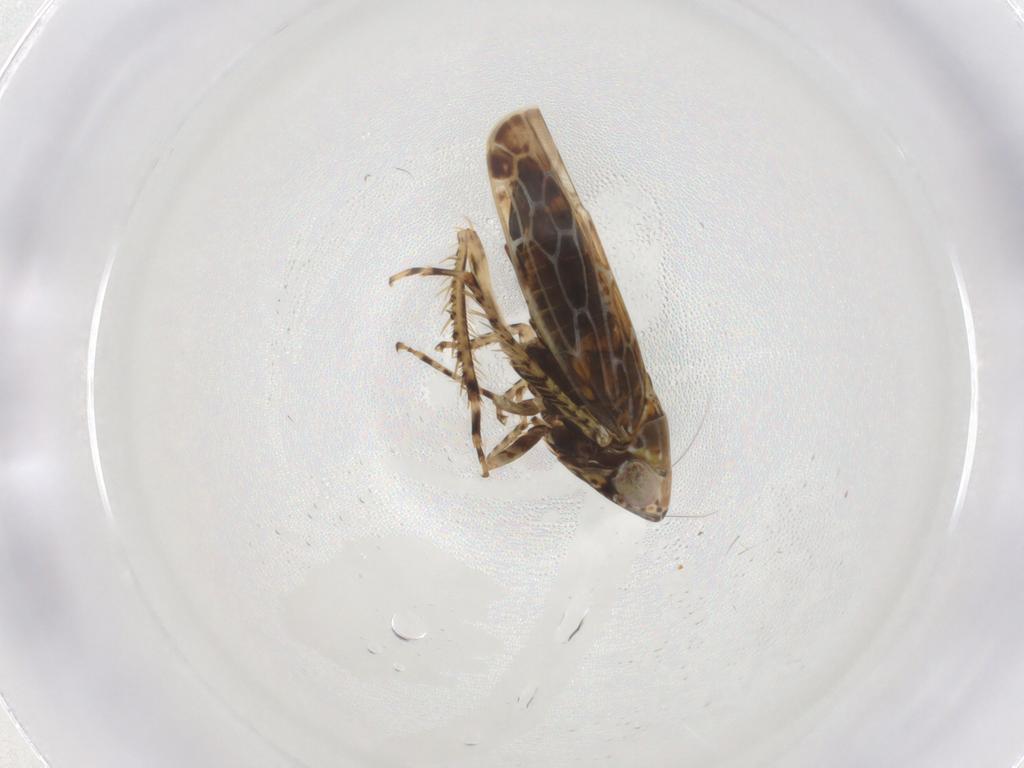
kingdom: Animalia
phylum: Arthropoda
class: Insecta
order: Hemiptera
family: Cicadellidae
